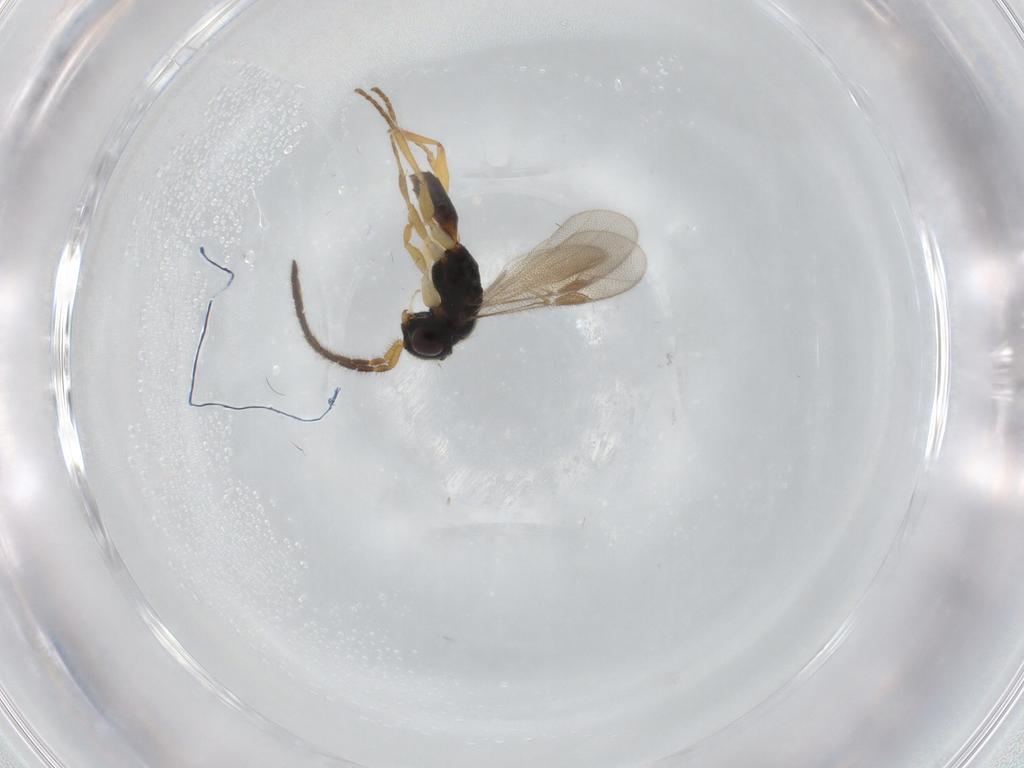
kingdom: Animalia
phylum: Arthropoda
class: Insecta
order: Hymenoptera
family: Dryinidae
